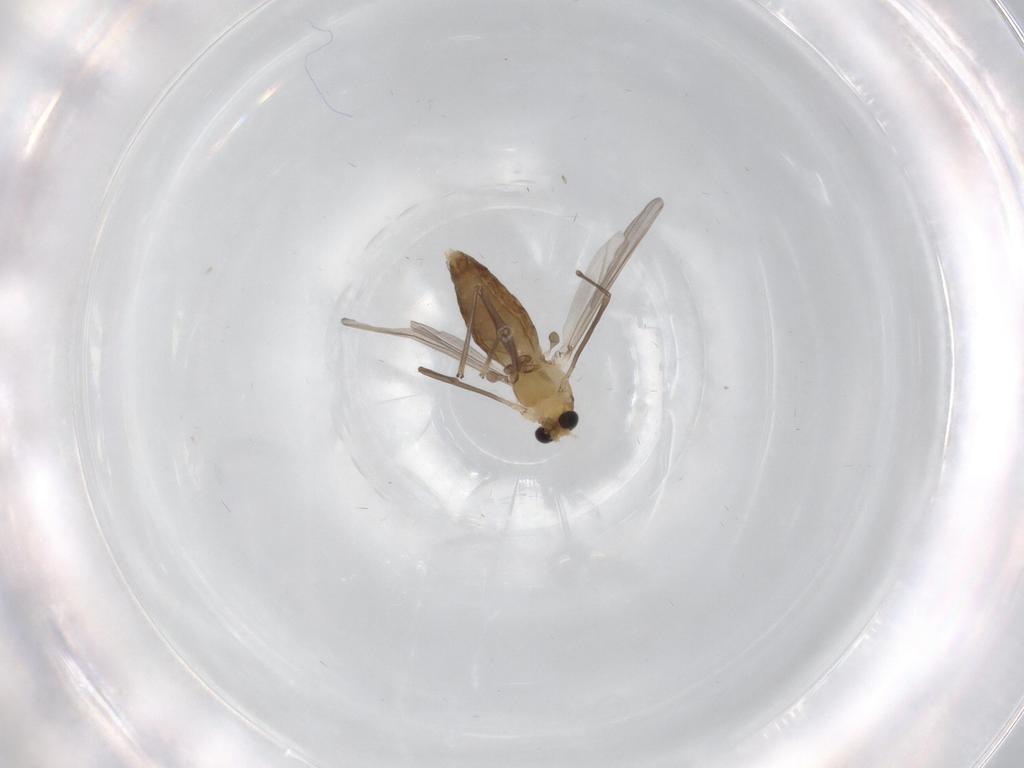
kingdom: Animalia
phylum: Arthropoda
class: Insecta
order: Diptera
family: Chironomidae
